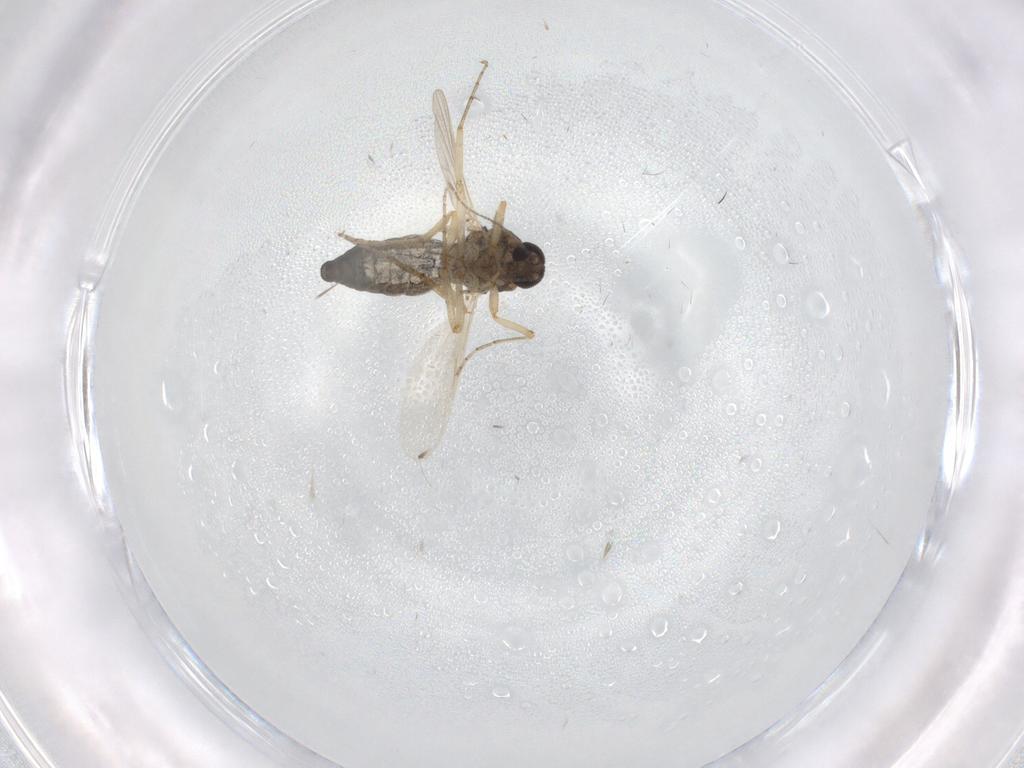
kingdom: Animalia
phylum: Arthropoda
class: Insecta
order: Diptera
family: Ceratopogonidae
